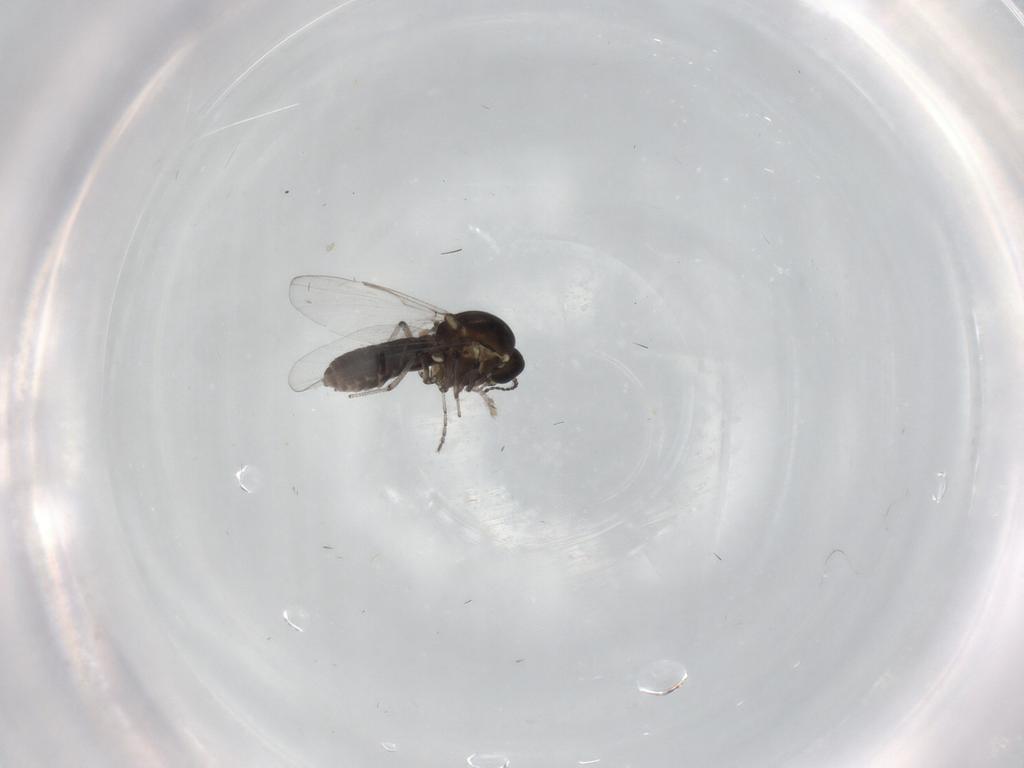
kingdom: Animalia
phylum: Arthropoda
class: Insecta
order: Diptera
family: Ceratopogonidae
